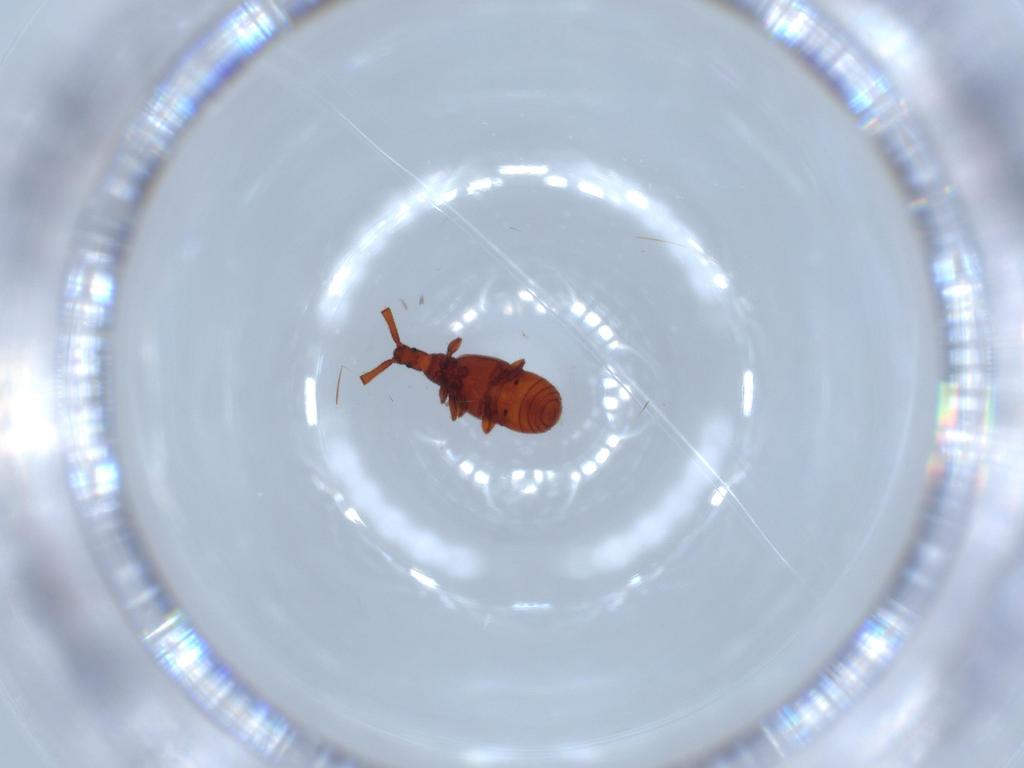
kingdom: Animalia
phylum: Arthropoda
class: Insecta
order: Coleoptera
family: Staphylinidae
